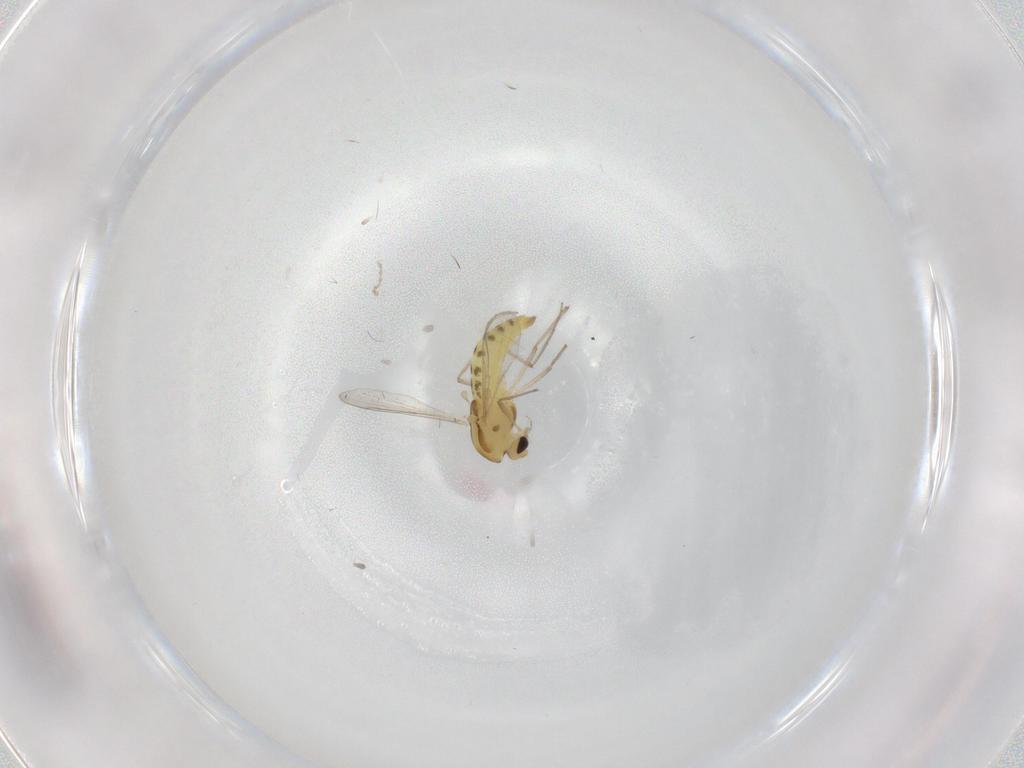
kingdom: Animalia
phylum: Arthropoda
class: Insecta
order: Diptera
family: Chironomidae
